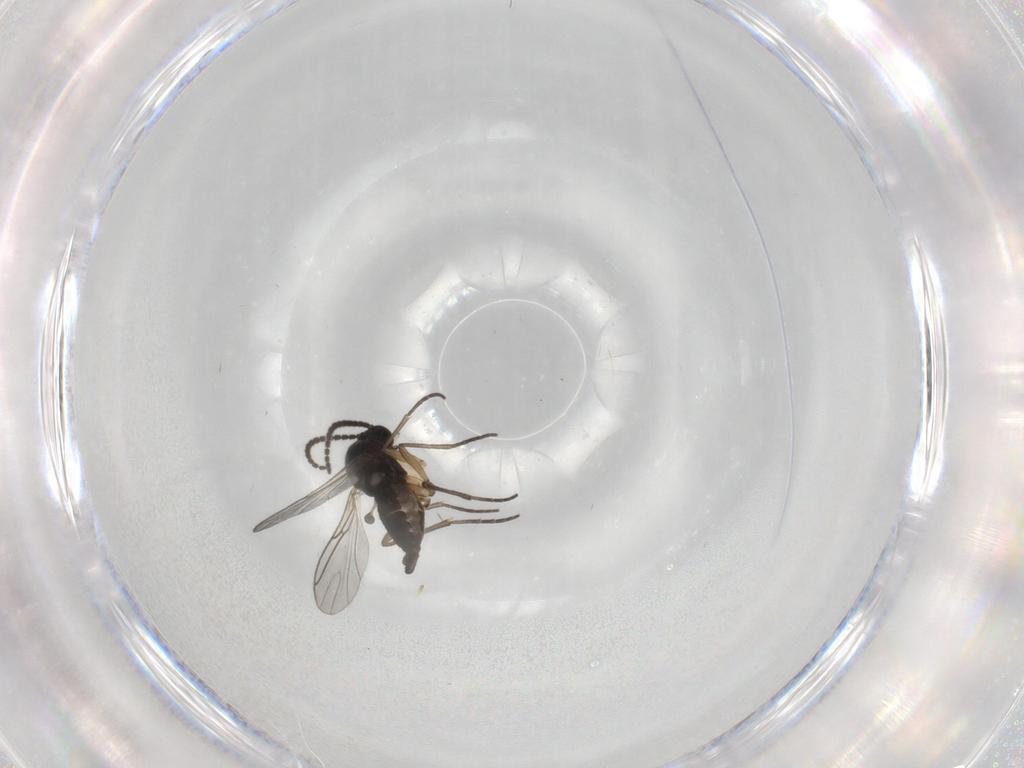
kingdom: Animalia
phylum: Arthropoda
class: Insecta
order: Diptera
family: Sciaridae
